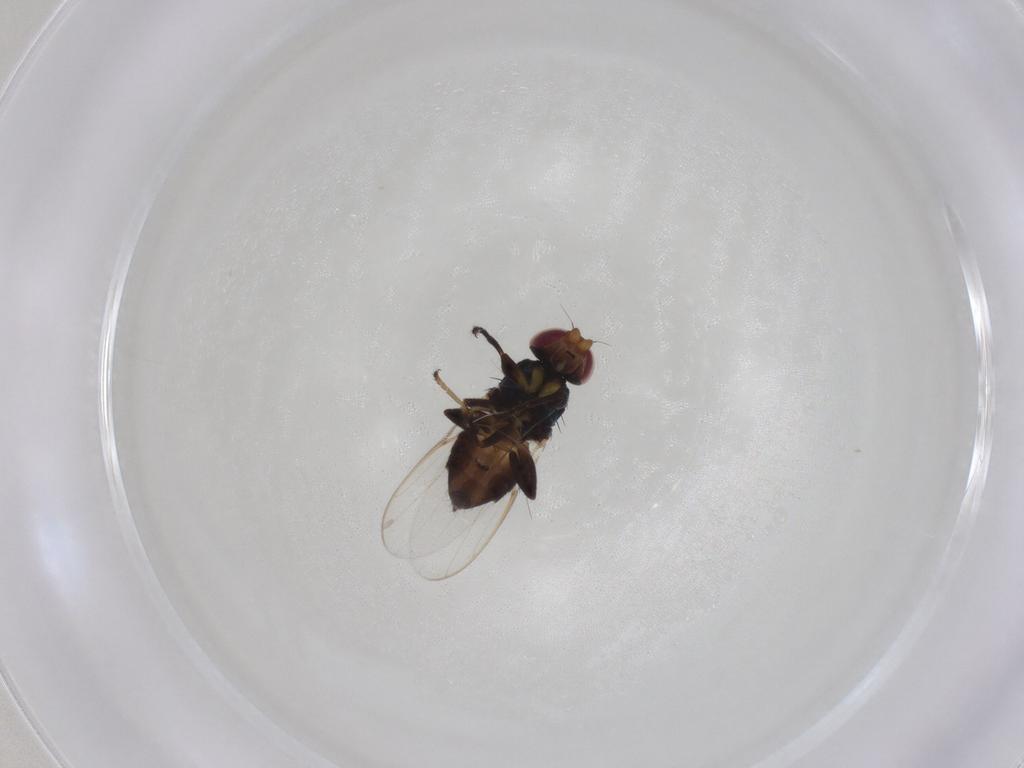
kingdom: Animalia
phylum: Arthropoda
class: Insecta
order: Diptera
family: Chloropidae
